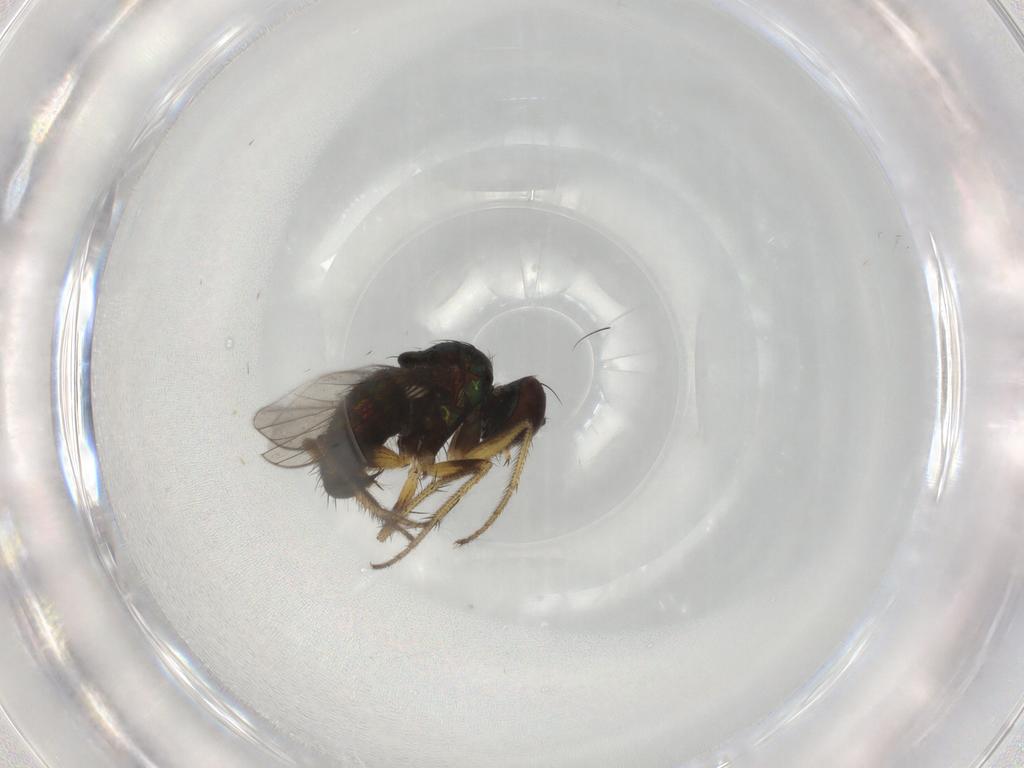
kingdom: Animalia
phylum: Arthropoda
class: Insecta
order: Diptera
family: Dolichopodidae
